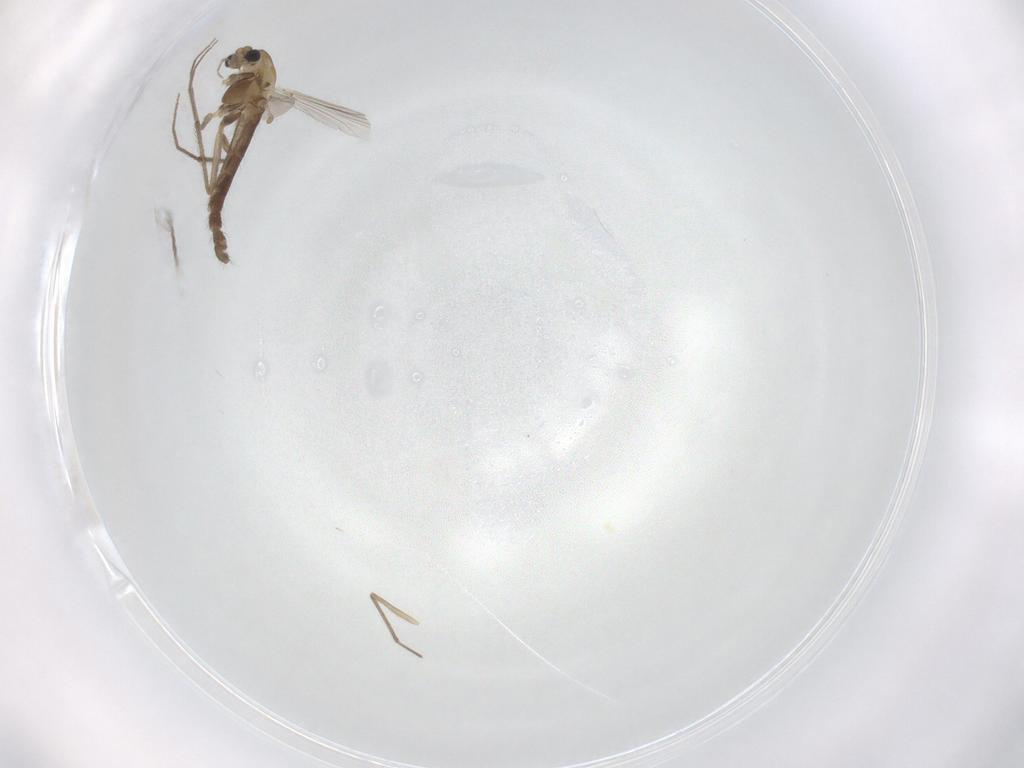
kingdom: Animalia
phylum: Arthropoda
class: Insecta
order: Diptera
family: Chironomidae
